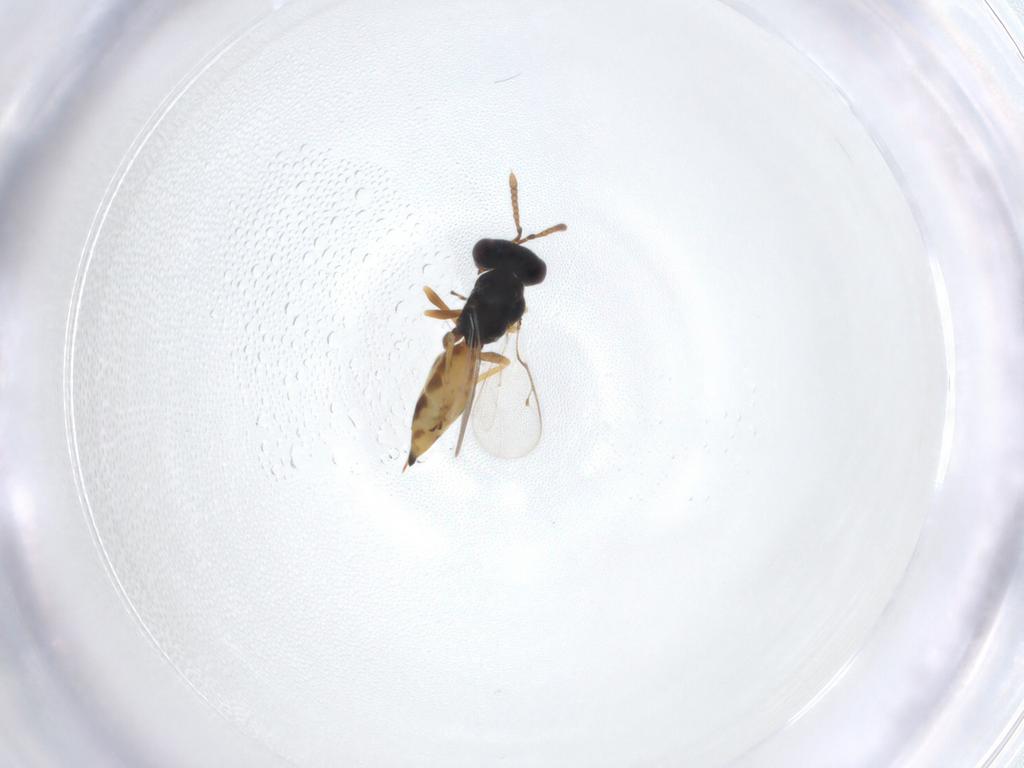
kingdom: Animalia
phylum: Arthropoda
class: Insecta
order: Hymenoptera
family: Pteromalidae
